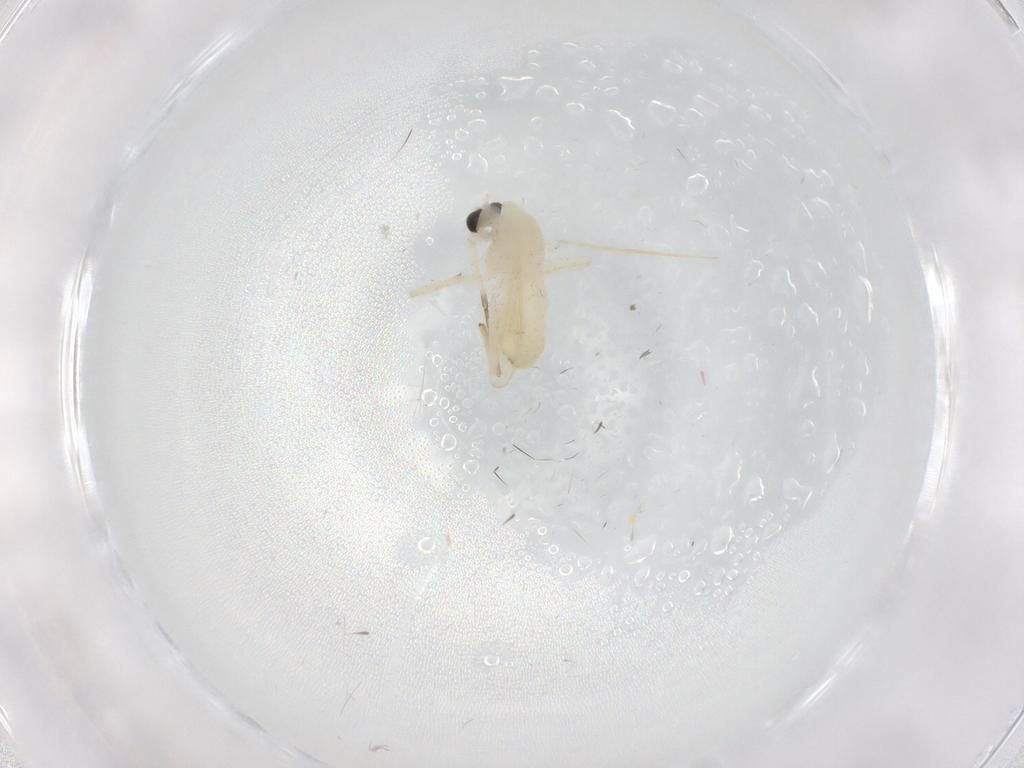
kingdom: Animalia
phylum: Arthropoda
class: Insecta
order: Diptera
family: Chironomidae
